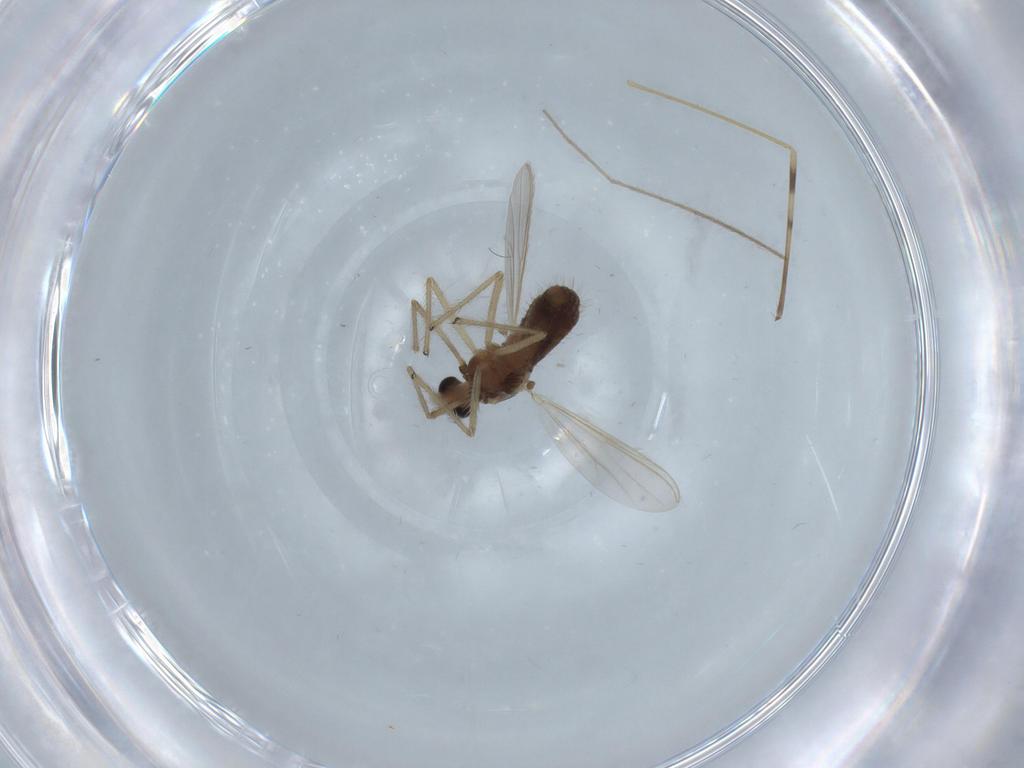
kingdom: Animalia
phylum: Arthropoda
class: Insecta
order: Diptera
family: Chironomidae
